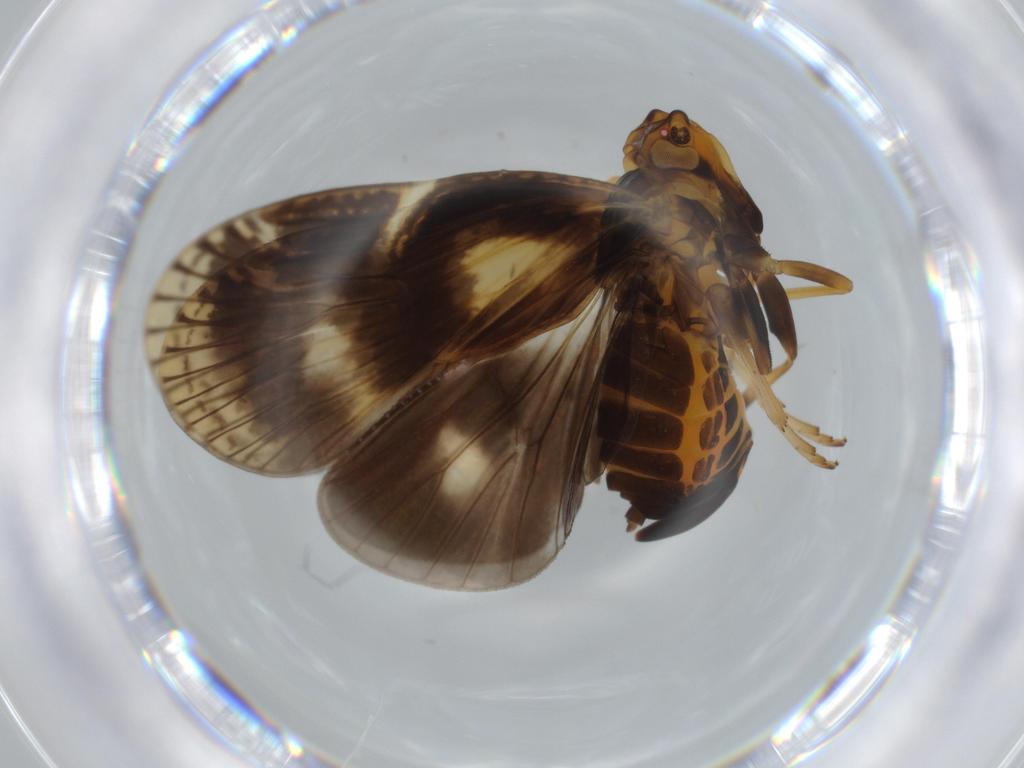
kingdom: Animalia
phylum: Arthropoda
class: Insecta
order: Hemiptera
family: Cixiidae
